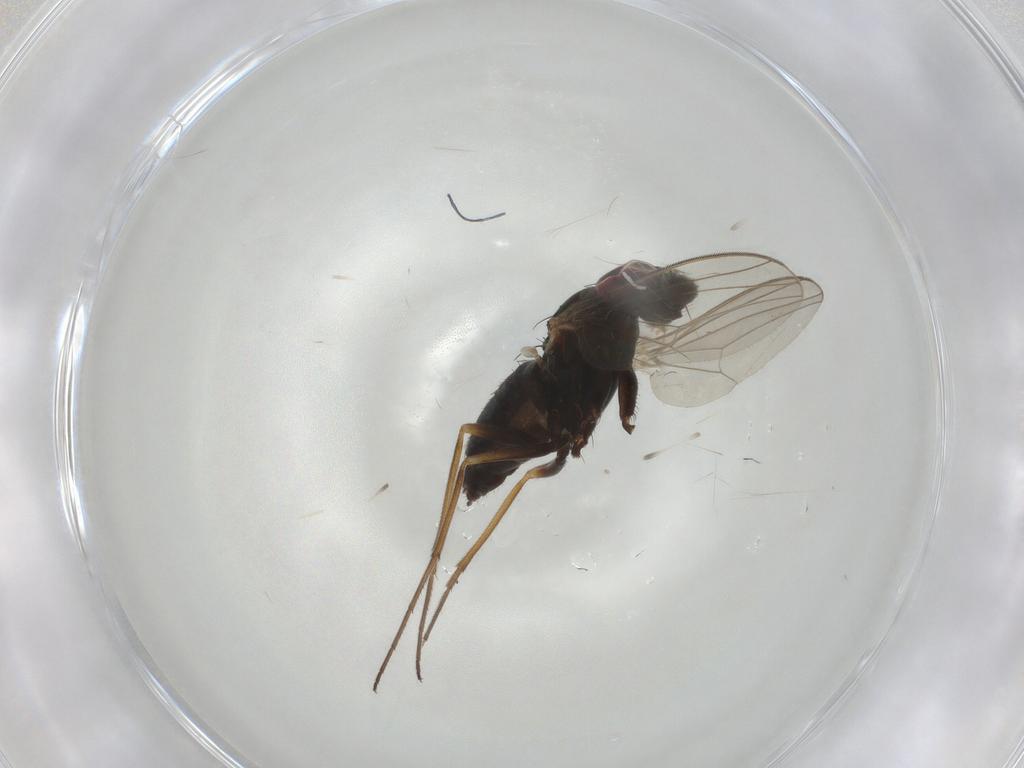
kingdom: Animalia
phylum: Arthropoda
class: Insecta
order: Diptera
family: Dolichopodidae
